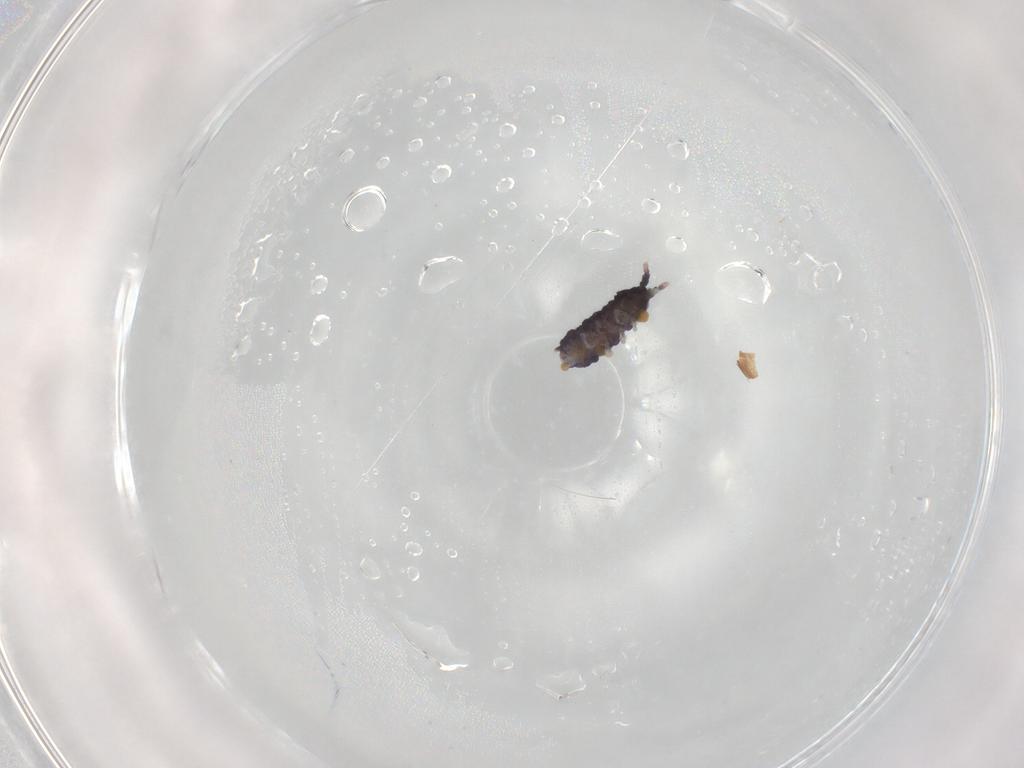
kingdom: Animalia
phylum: Arthropoda
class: Collembola
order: Poduromorpha
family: Neanuridae
